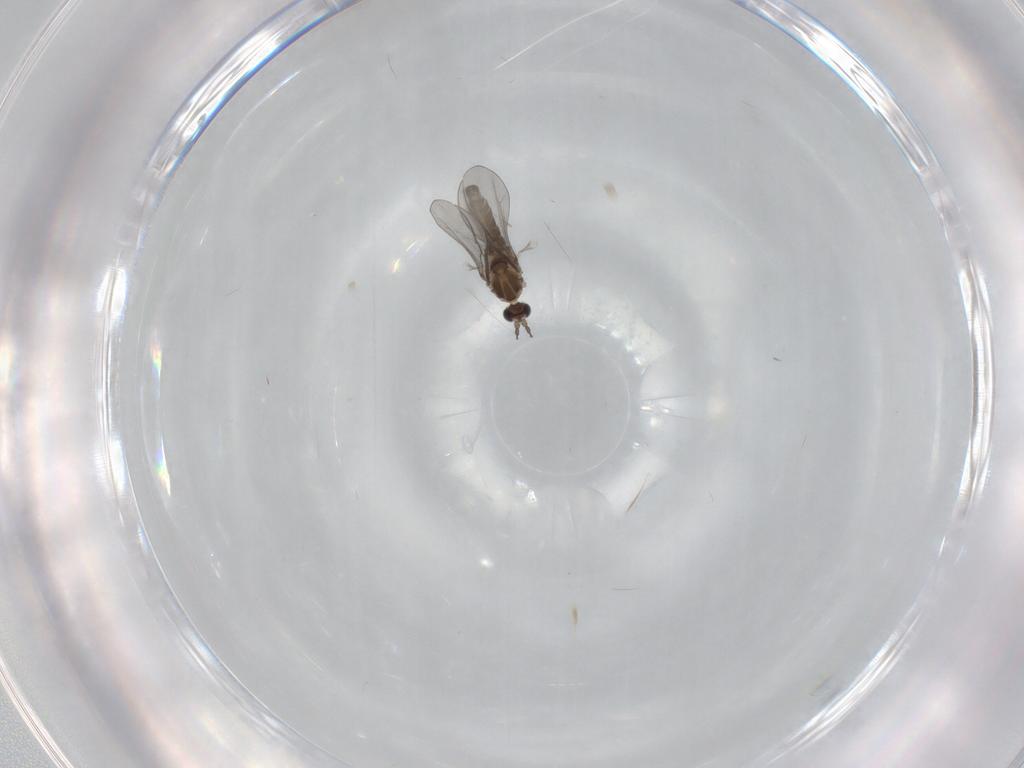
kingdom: Animalia
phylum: Arthropoda
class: Insecta
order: Diptera
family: Cecidomyiidae
